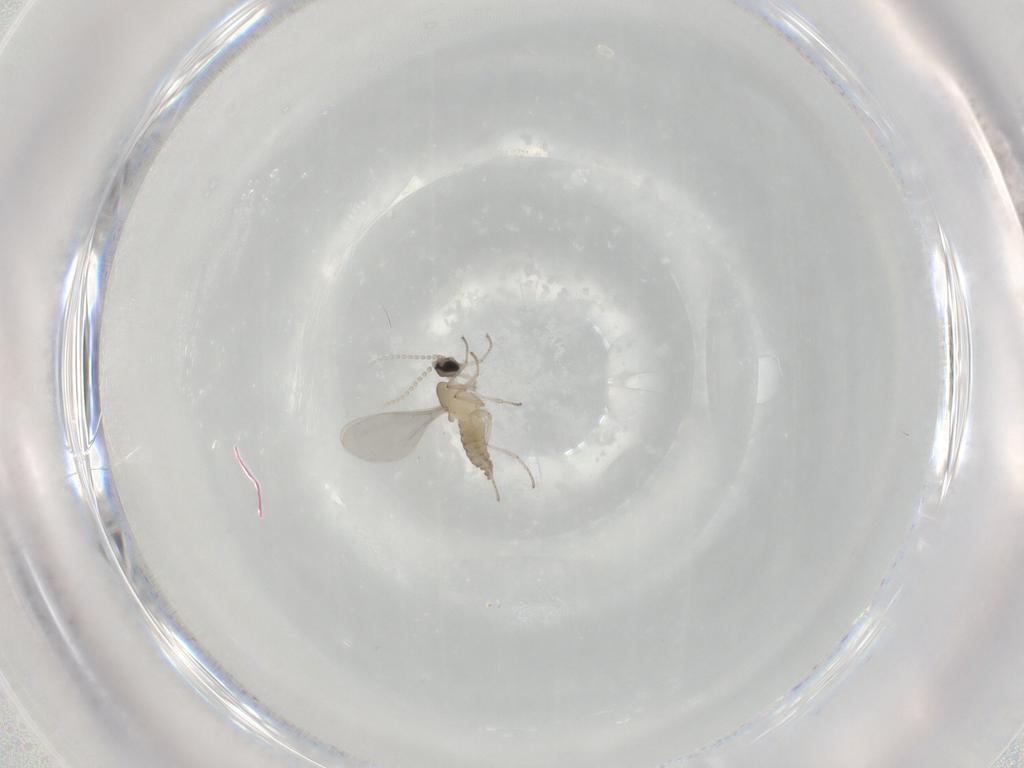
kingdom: Animalia
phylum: Arthropoda
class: Insecta
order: Diptera
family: Cecidomyiidae
